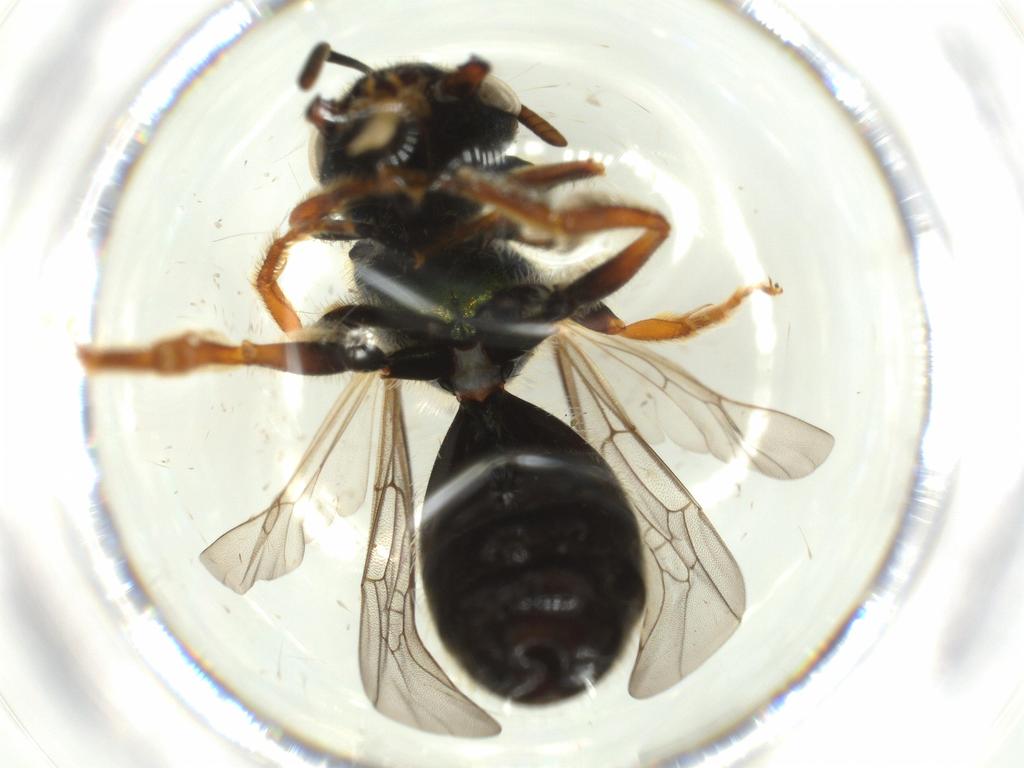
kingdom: Animalia
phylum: Arthropoda
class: Insecta
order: Hymenoptera
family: Halictidae
